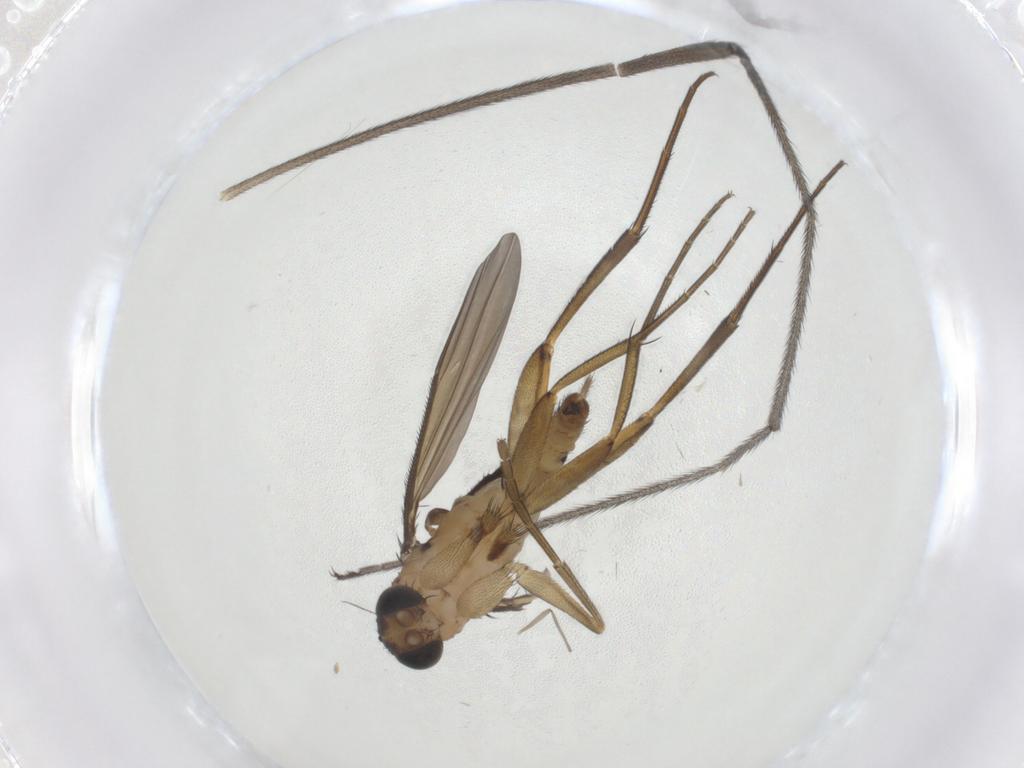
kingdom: Animalia
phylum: Arthropoda
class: Insecta
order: Diptera
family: Phoridae
